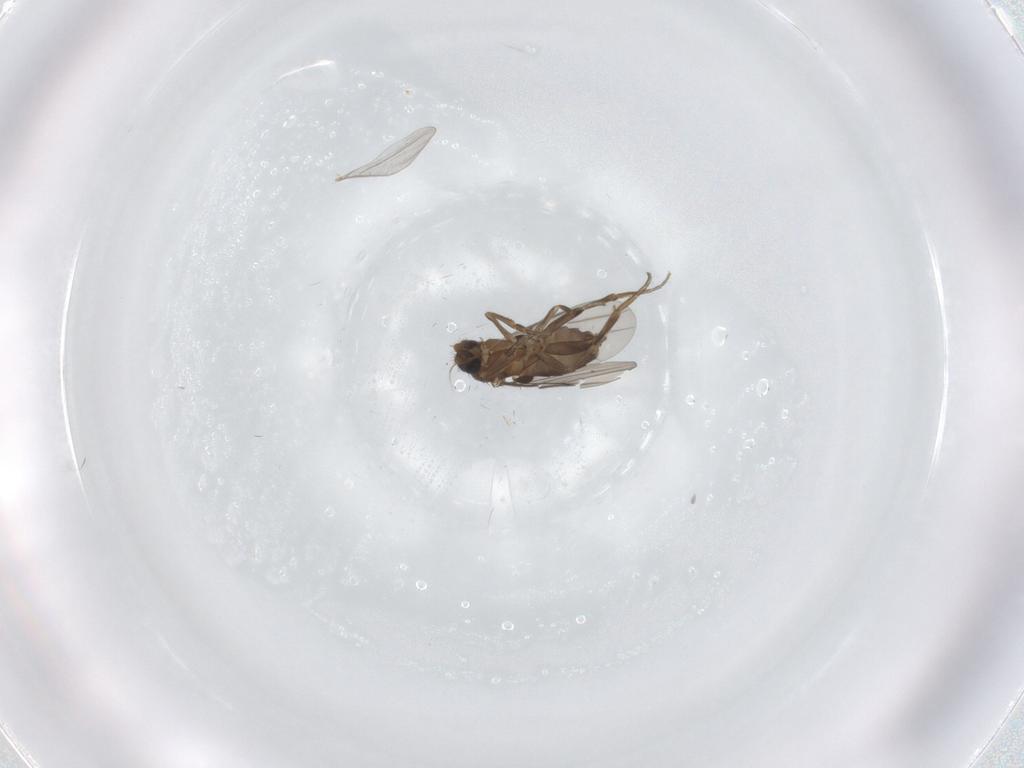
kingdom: Animalia
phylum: Arthropoda
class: Insecta
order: Diptera
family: Phoridae
